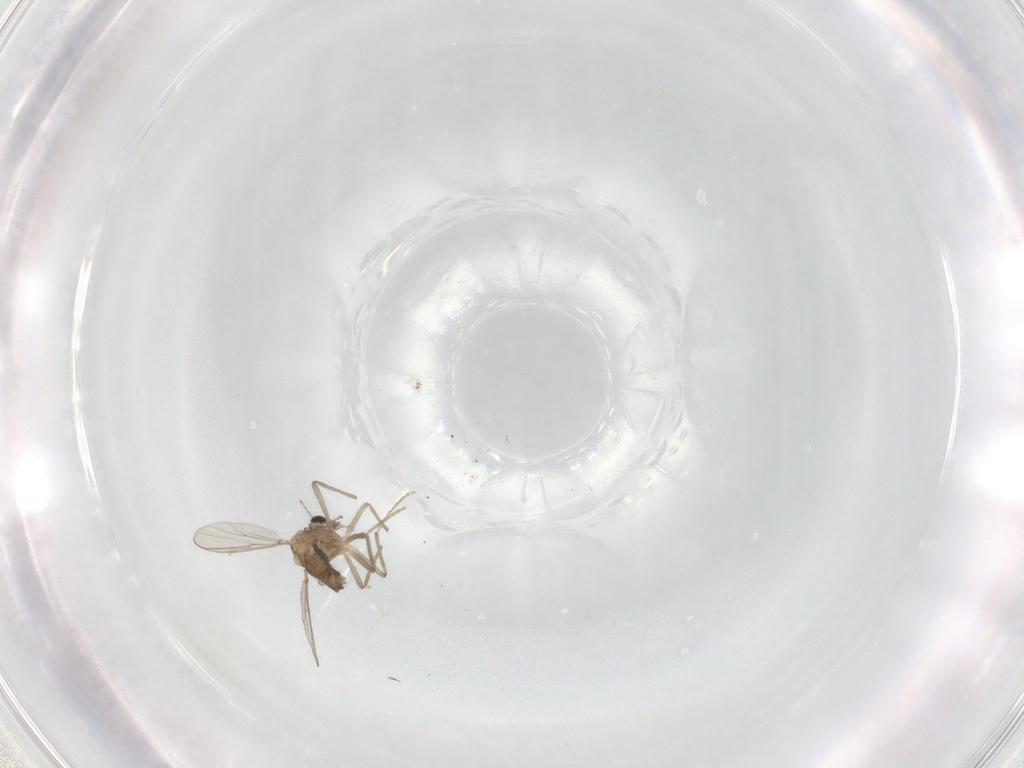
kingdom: Animalia
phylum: Arthropoda
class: Insecta
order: Diptera
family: Chironomidae
